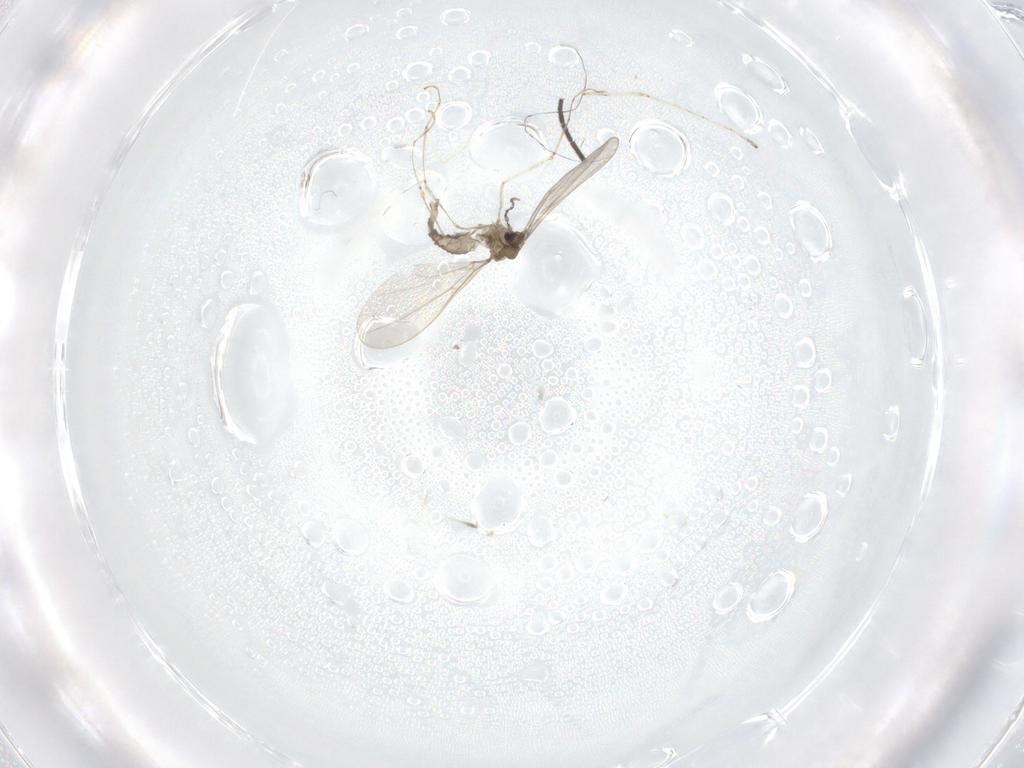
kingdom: Animalia
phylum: Arthropoda
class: Insecta
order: Diptera
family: Cecidomyiidae
